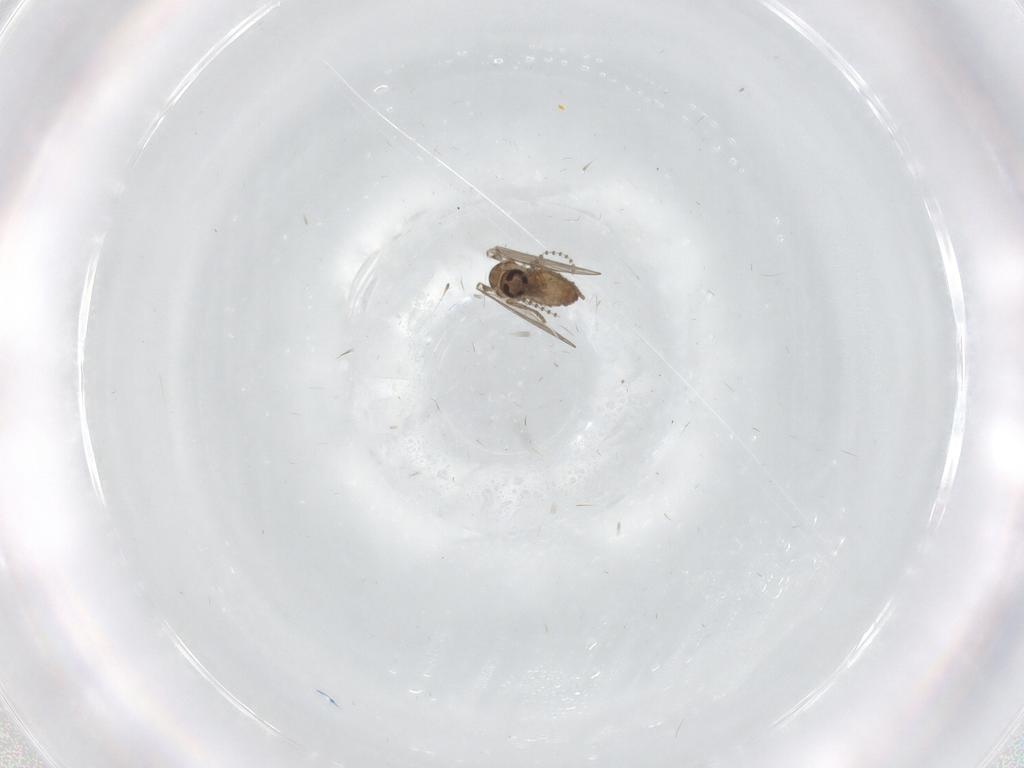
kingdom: Animalia
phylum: Arthropoda
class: Insecta
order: Diptera
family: Psychodidae
